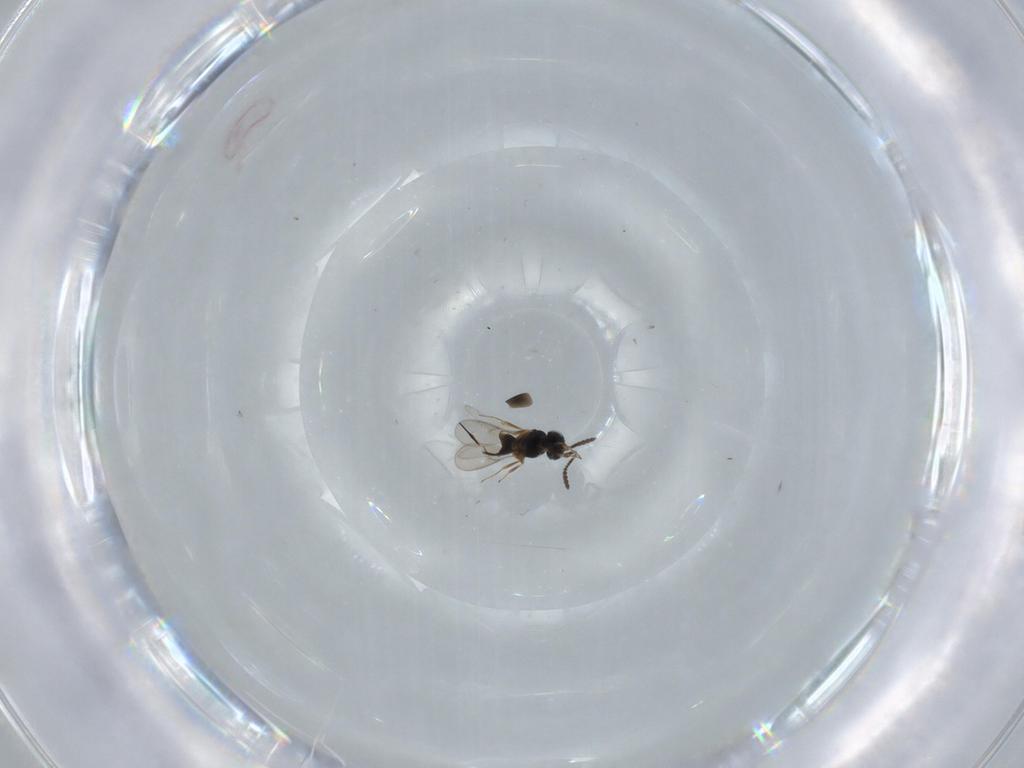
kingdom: Animalia
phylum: Arthropoda
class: Insecta
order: Hymenoptera
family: Scelionidae
